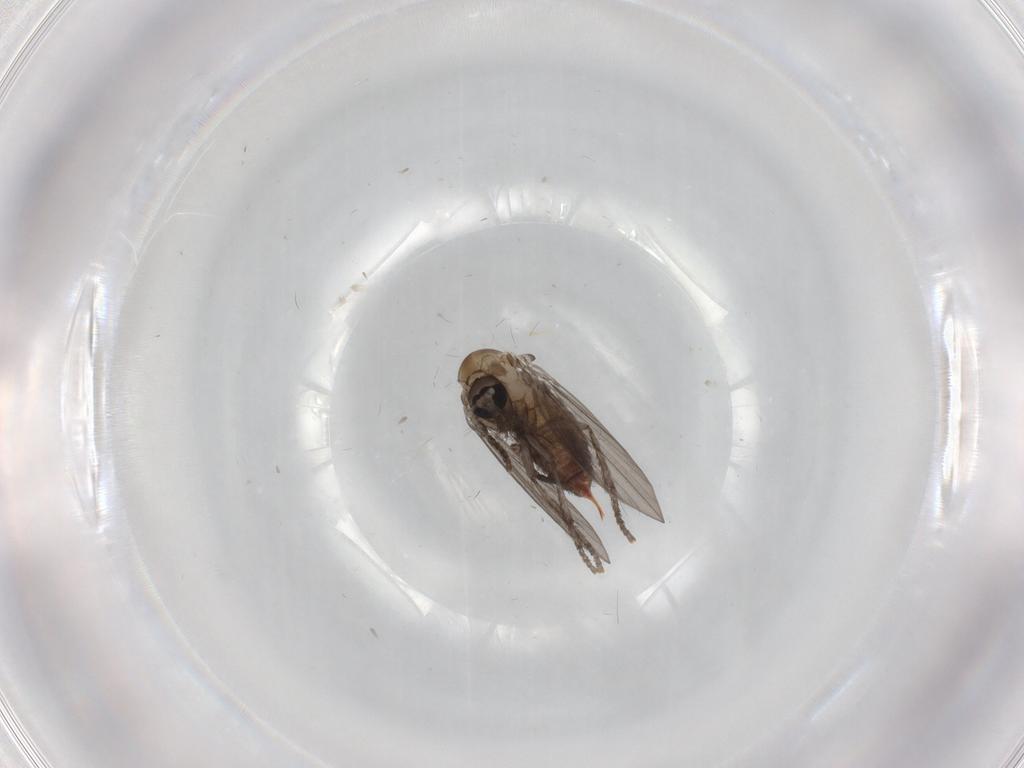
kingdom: Animalia
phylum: Arthropoda
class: Insecta
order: Diptera
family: Psychodidae
